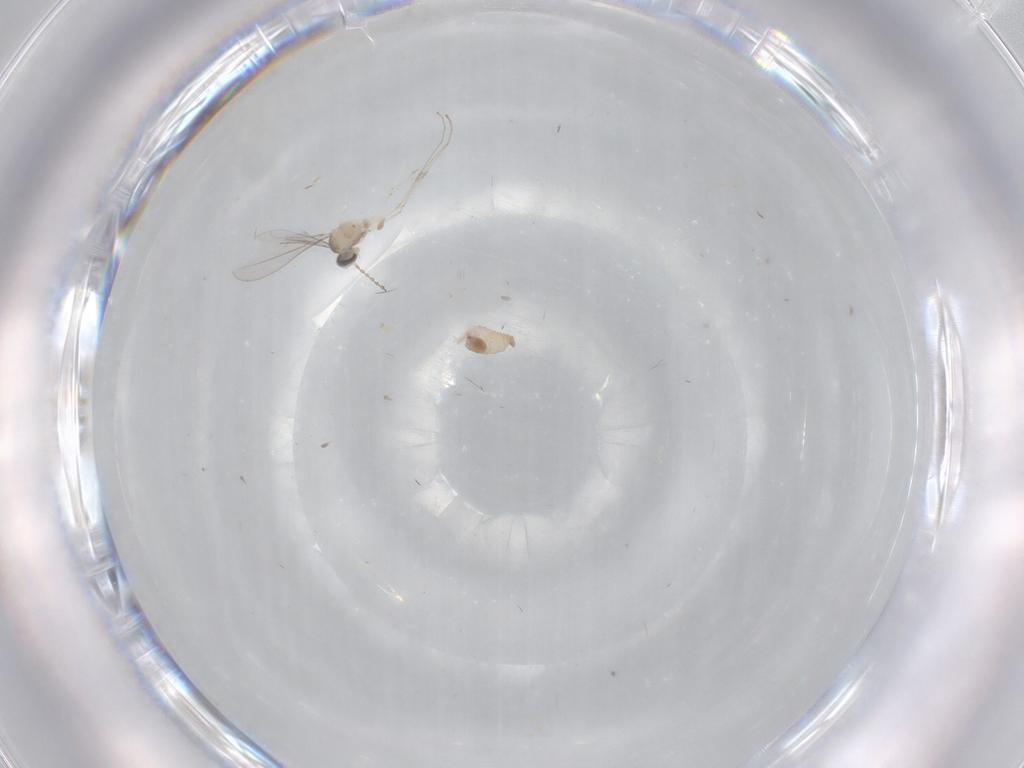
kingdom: Animalia
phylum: Arthropoda
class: Insecta
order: Diptera
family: Cecidomyiidae
